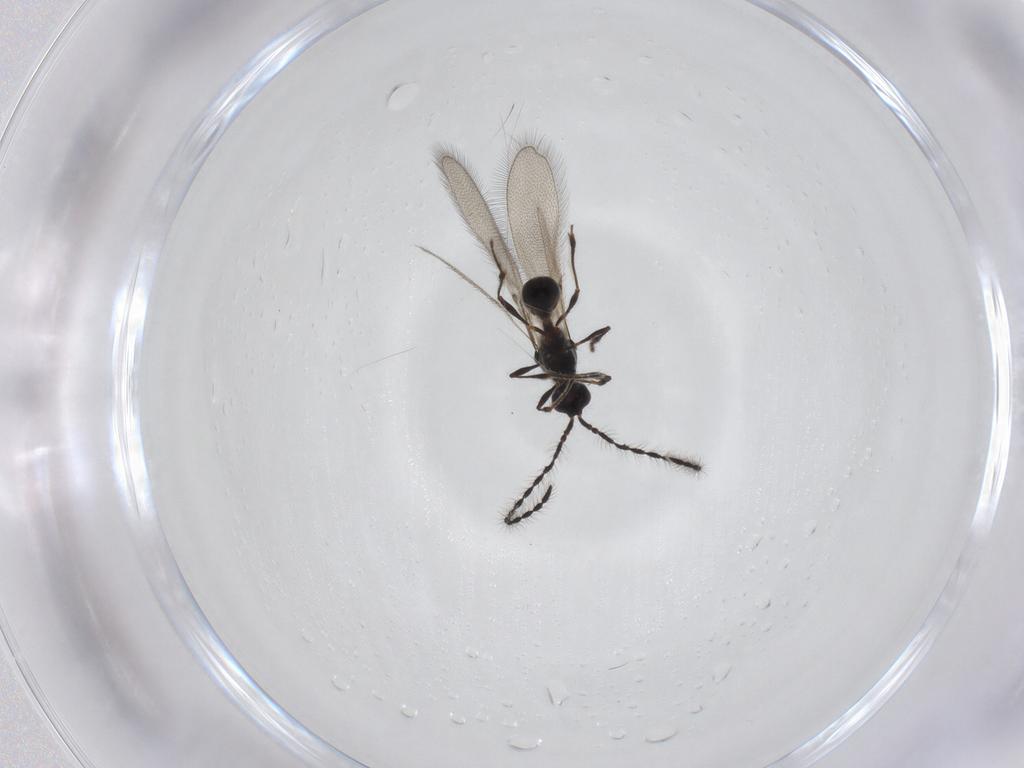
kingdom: Animalia
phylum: Arthropoda
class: Insecta
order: Hymenoptera
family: Diapriidae
